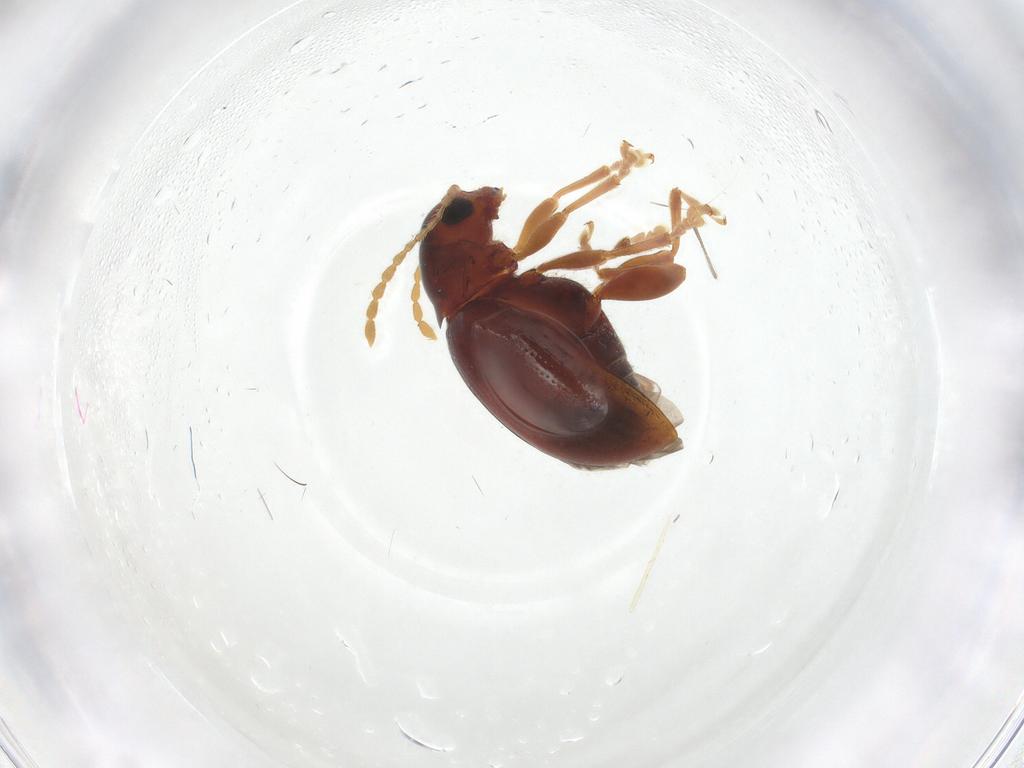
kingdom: Animalia
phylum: Arthropoda
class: Insecta
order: Coleoptera
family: Chrysomelidae
